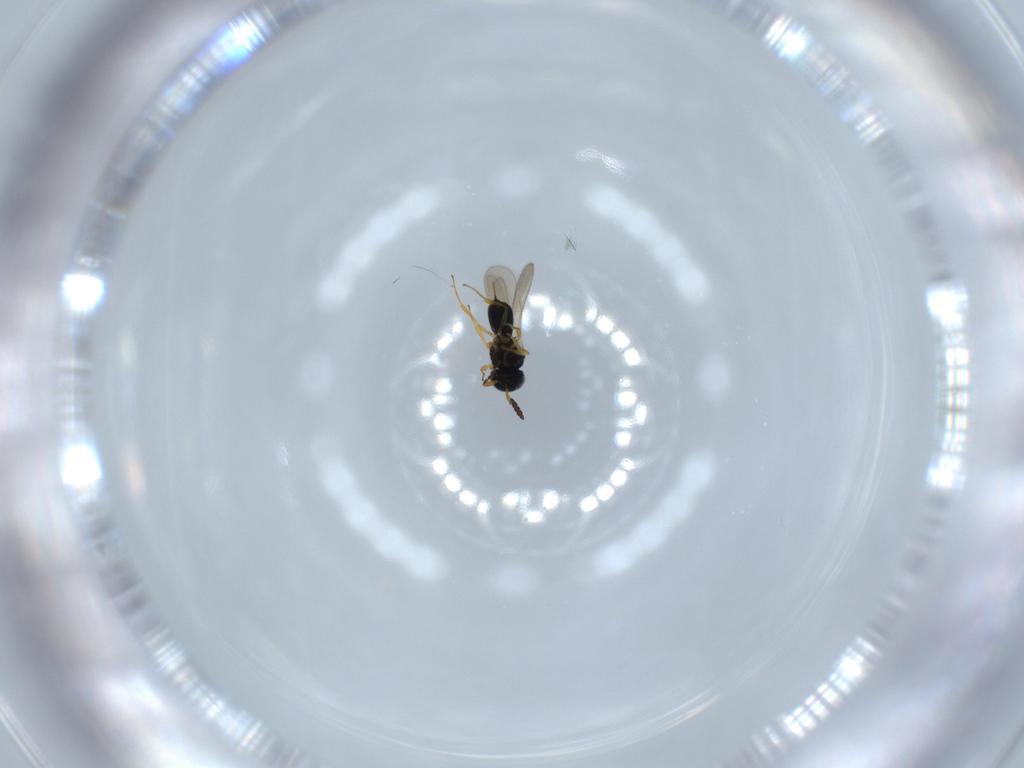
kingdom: Animalia
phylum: Arthropoda
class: Insecta
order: Hymenoptera
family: Scelionidae
